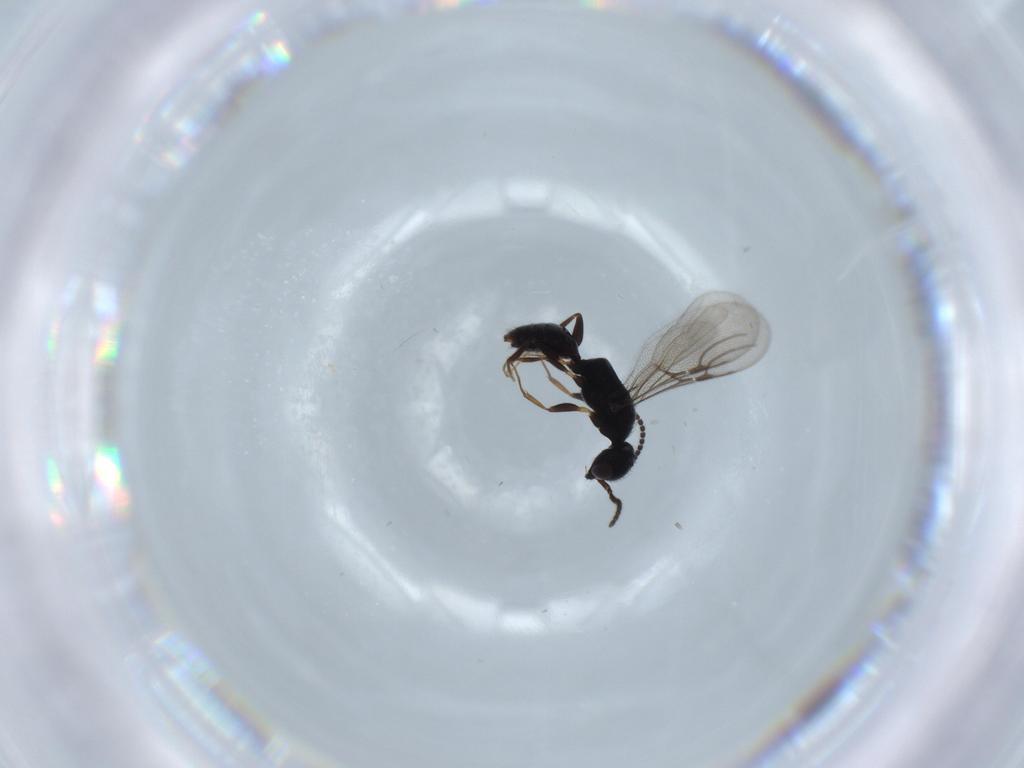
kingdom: Animalia
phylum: Arthropoda
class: Insecta
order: Hymenoptera
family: Bethylidae
